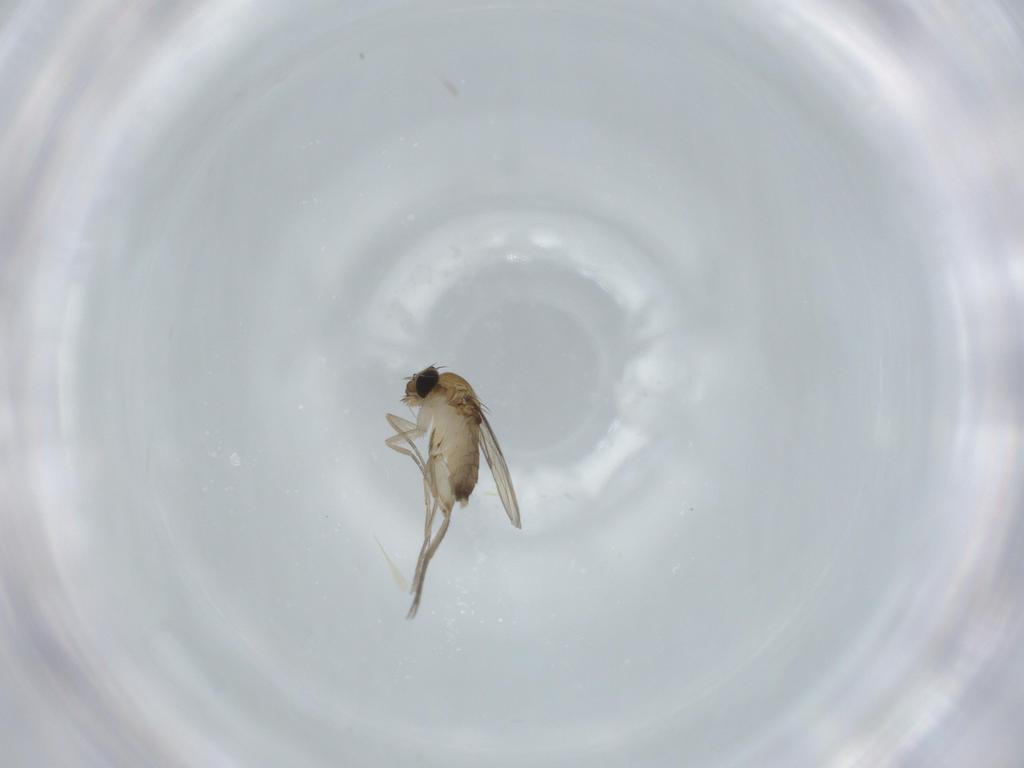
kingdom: Animalia
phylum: Arthropoda
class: Insecta
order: Diptera
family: Phoridae
